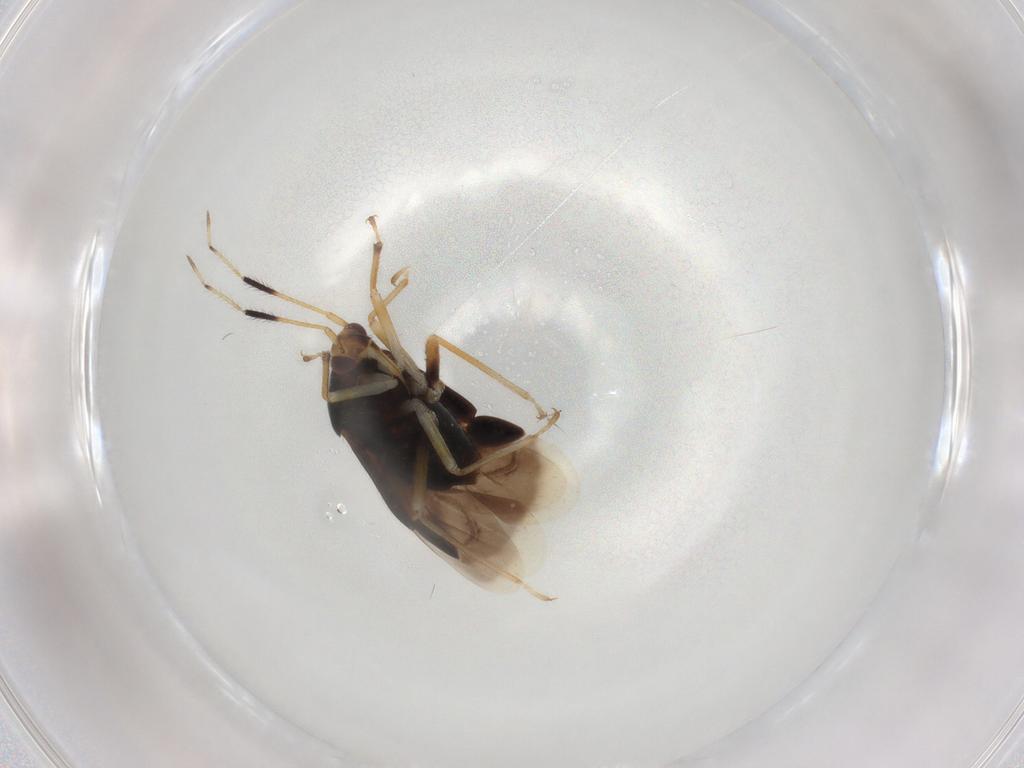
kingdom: Animalia
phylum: Arthropoda
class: Insecta
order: Hemiptera
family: Miridae
